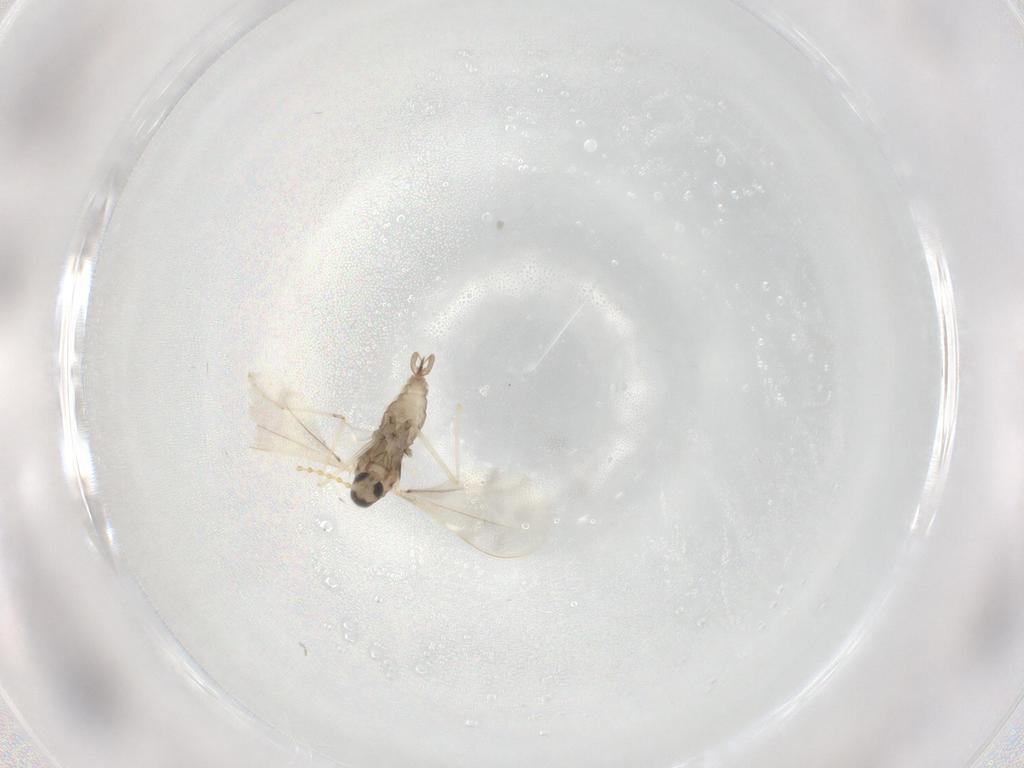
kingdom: Animalia
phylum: Arthropoda
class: Insecta
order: Diptera
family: Cecidomyiidae
